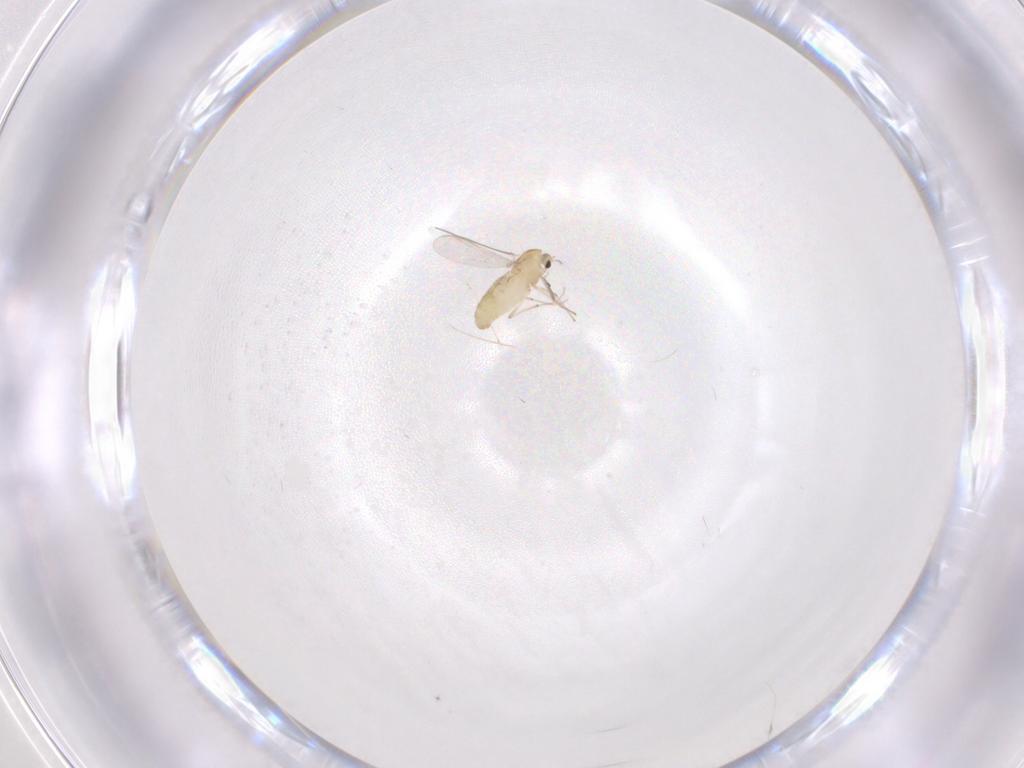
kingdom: Animalia
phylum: Arthropoda
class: Insecta
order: Diptera
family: Chironomidae
